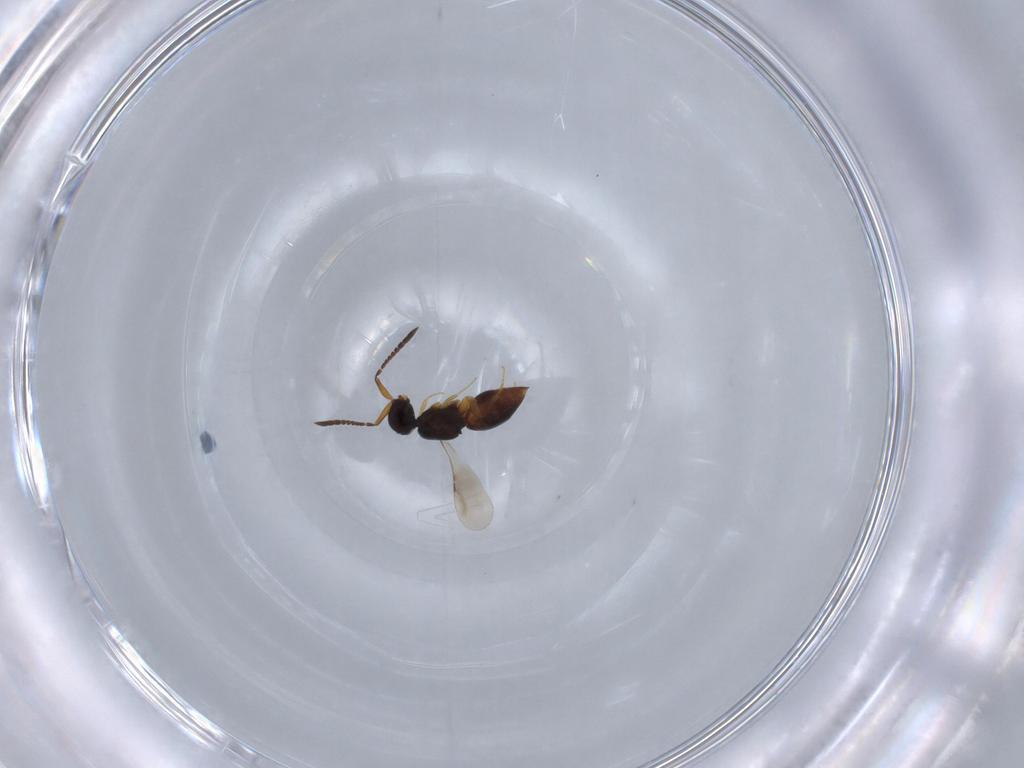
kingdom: Animalia
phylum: Arthropoda
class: Insecta
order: Hymenoptera
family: Ceraphronidae
